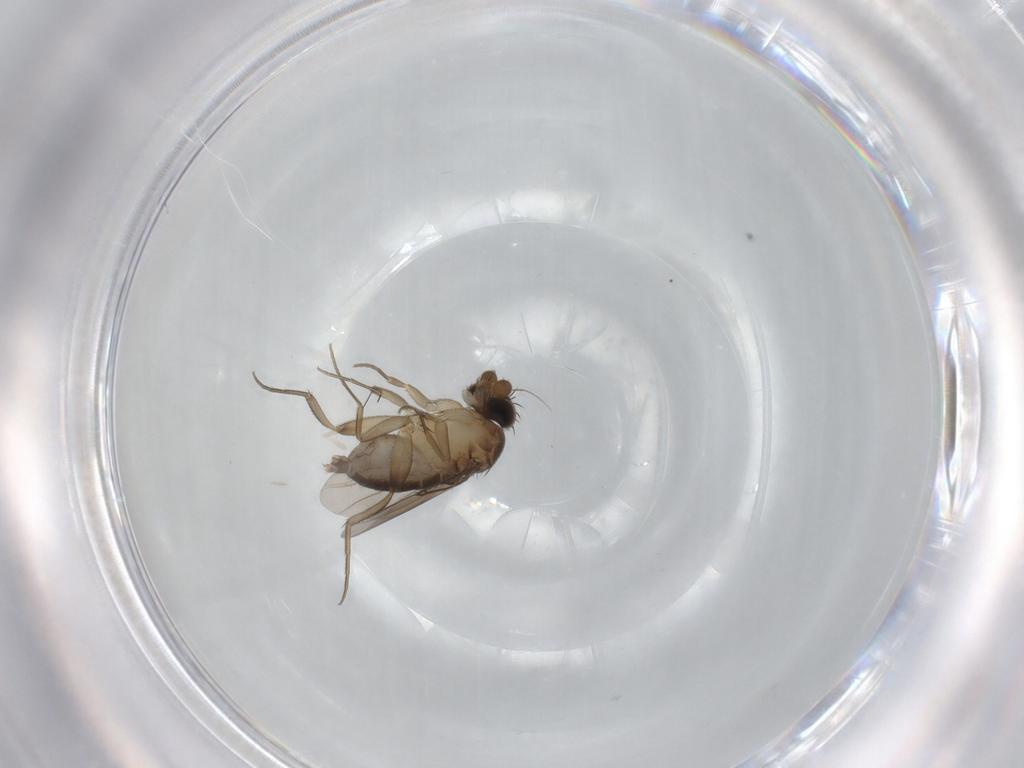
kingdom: Animalia
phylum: Arthropoda
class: Insecta
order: Diptera
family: Phoridae
